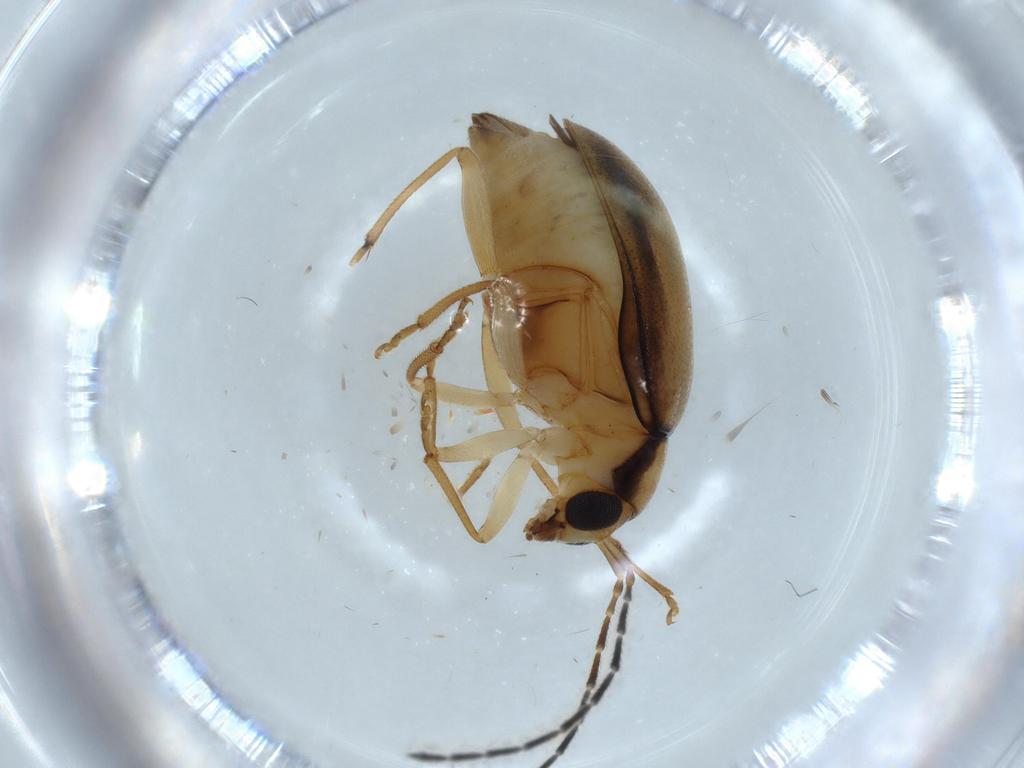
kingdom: Animalia
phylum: Arthropoda
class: Insecta
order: Coleoptera
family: Chrysomelidae
